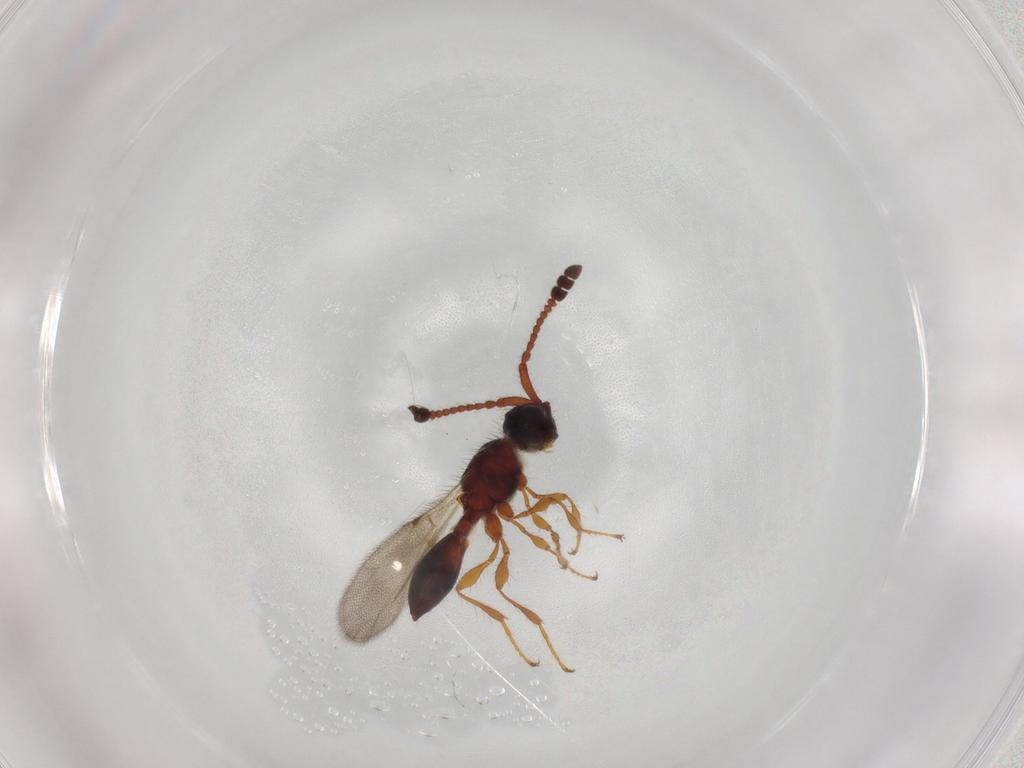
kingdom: Animalia
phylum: Arthropoda
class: Insecta
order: Hymenoptera
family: Diapriidae
